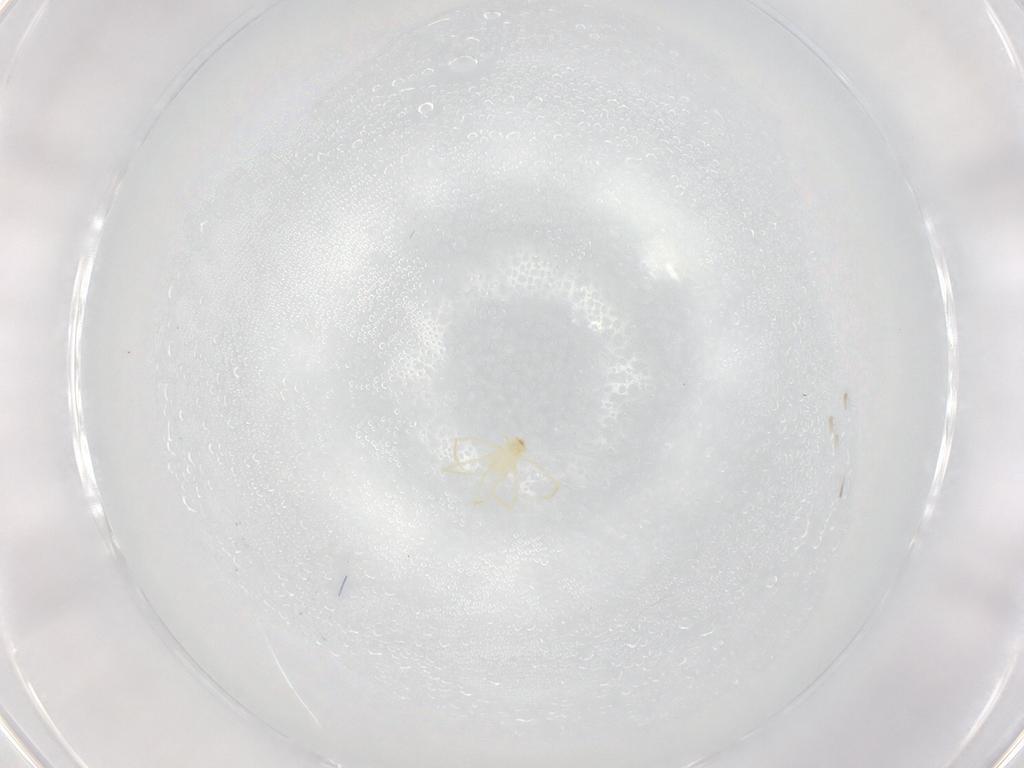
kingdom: Animalia
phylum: Arthropoda
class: Arachnida
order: Trombidiformes
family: Erythraeidae
